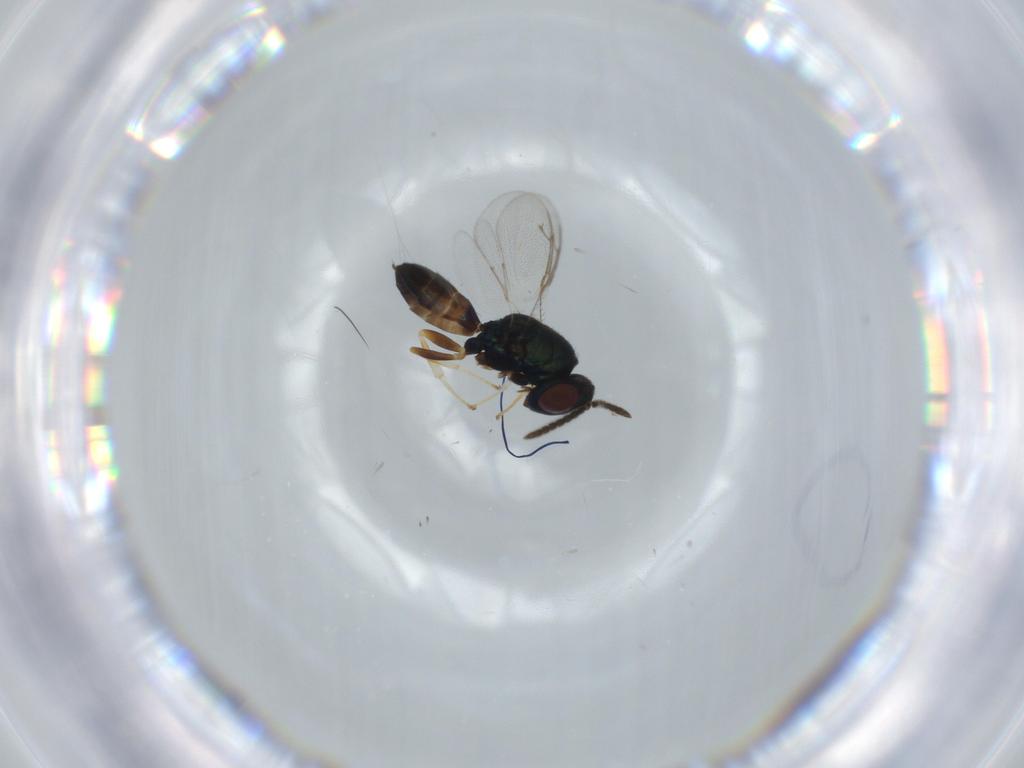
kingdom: Animalia
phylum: Arthropoda
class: Insecta
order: Hymenoptera
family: Pteromalidae
